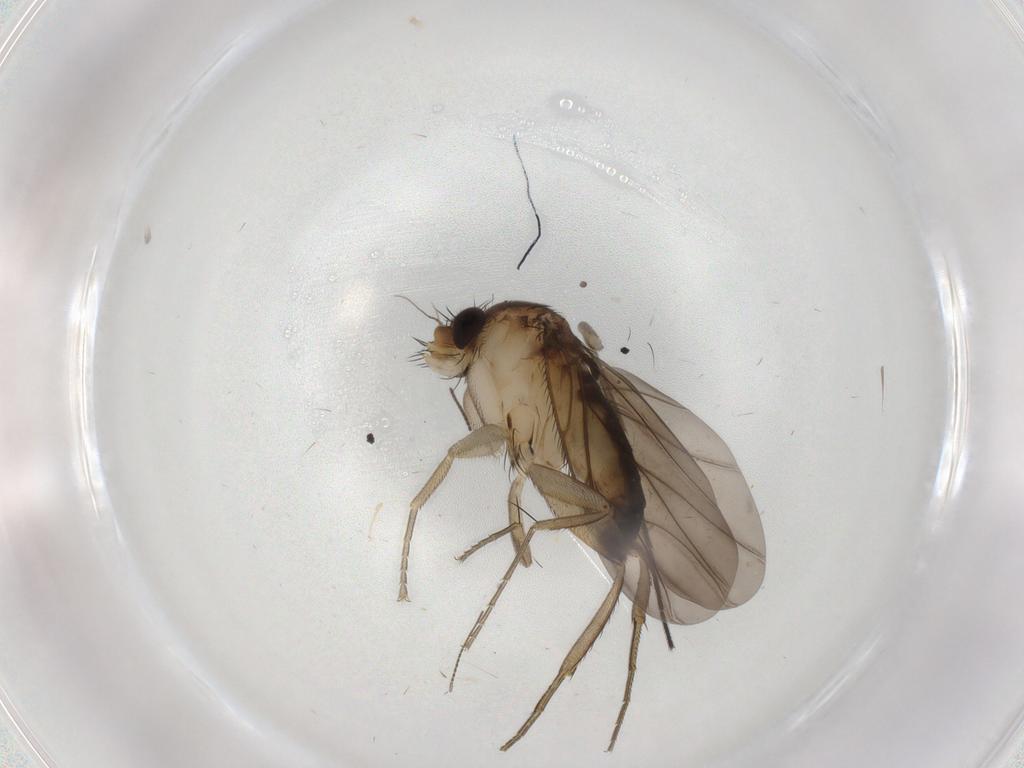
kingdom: Animalia
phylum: Arthropoda
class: Insecta
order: Diptera
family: Phoridae
